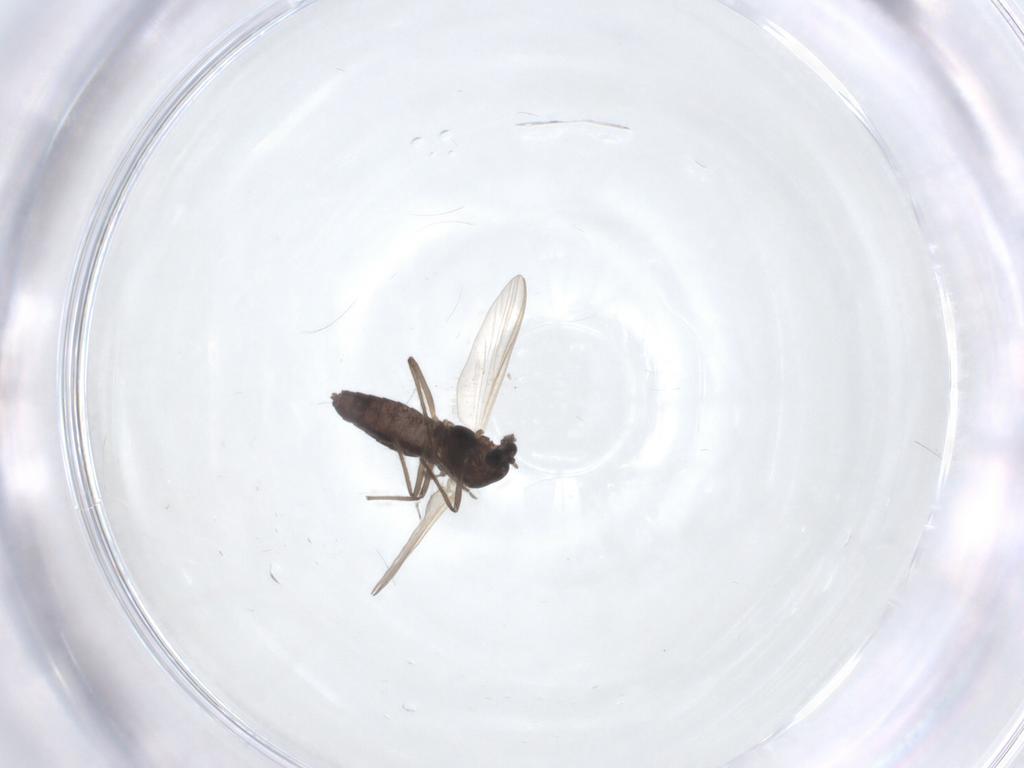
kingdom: Animalia
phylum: Arthropoda
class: Insecta
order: Diptera
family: Chironomidae
